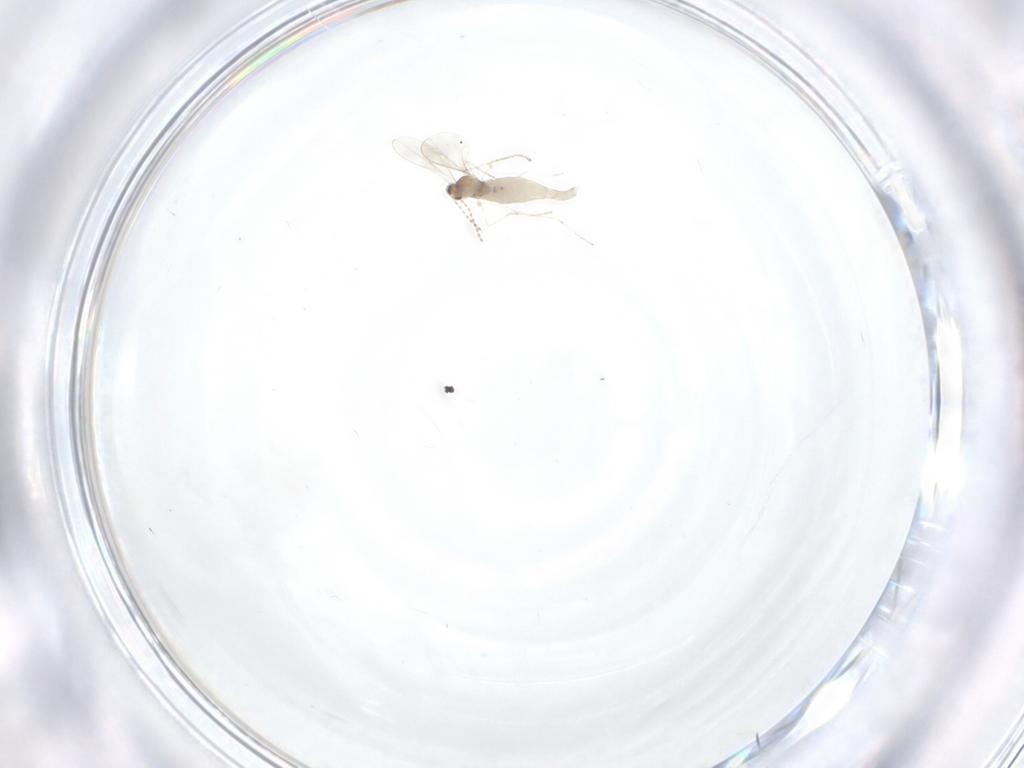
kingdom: Animalia
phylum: Arthropoda
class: Insecta
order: Diptera
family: Cecidomyiidae
